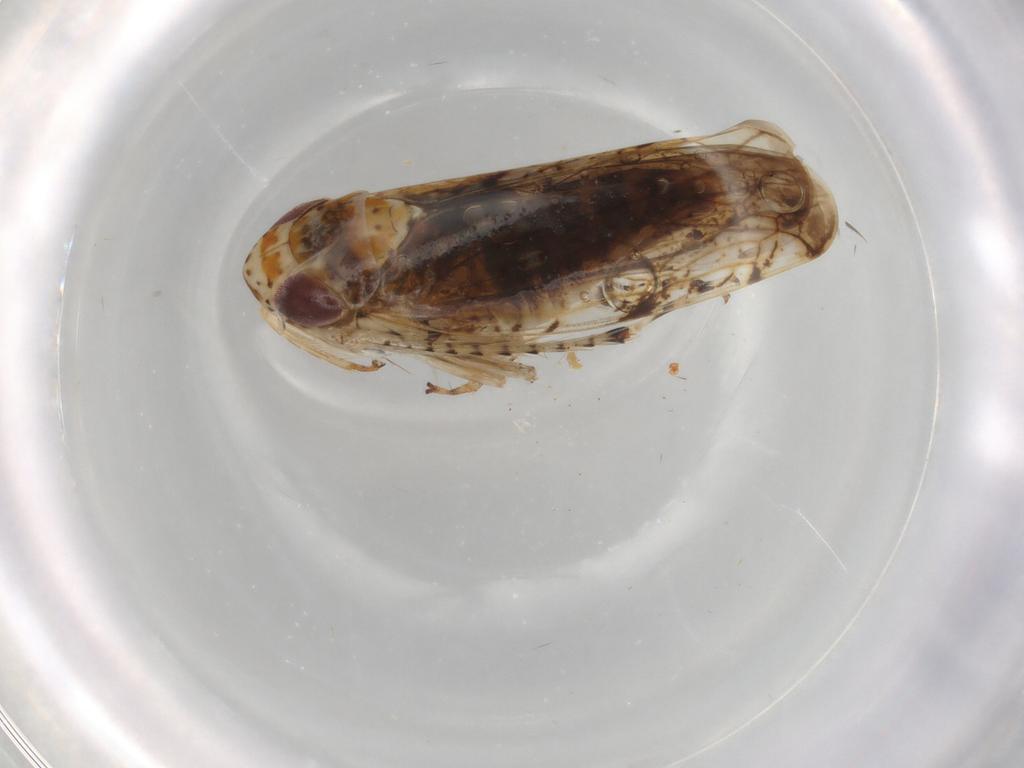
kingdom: Animalia
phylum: Arthropoda
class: Insecta
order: Hemiptera
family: Cicadellidae
